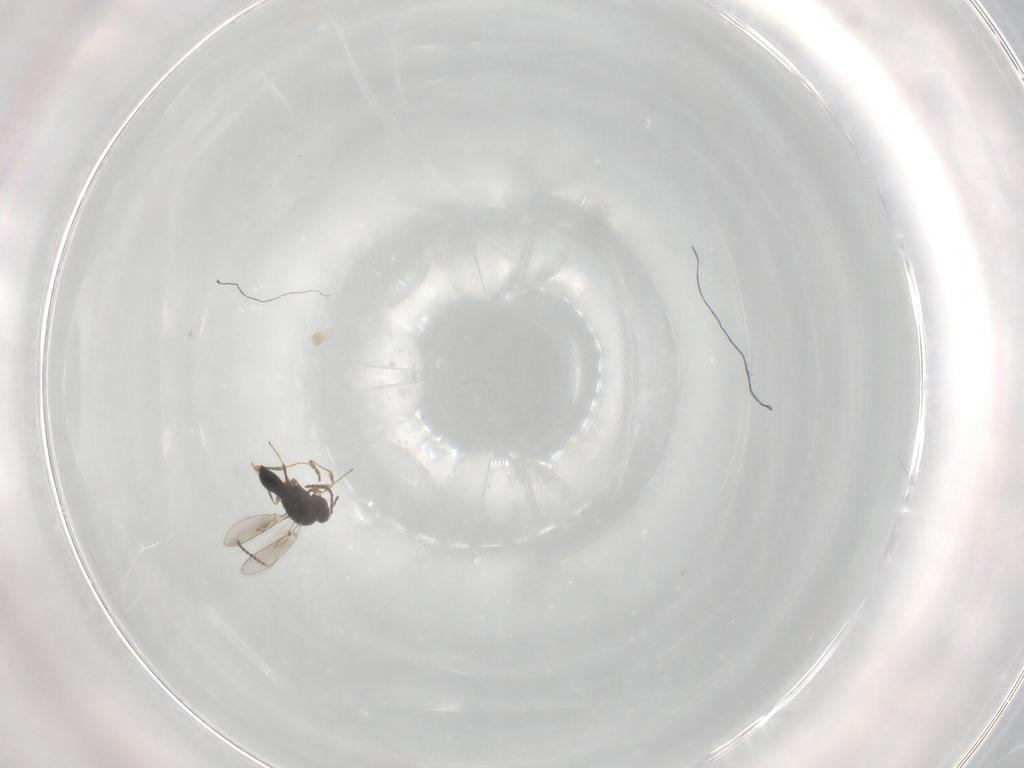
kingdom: Animalia
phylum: Arthropoda
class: Insecta
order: Hymenoptera
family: Scelionidae
